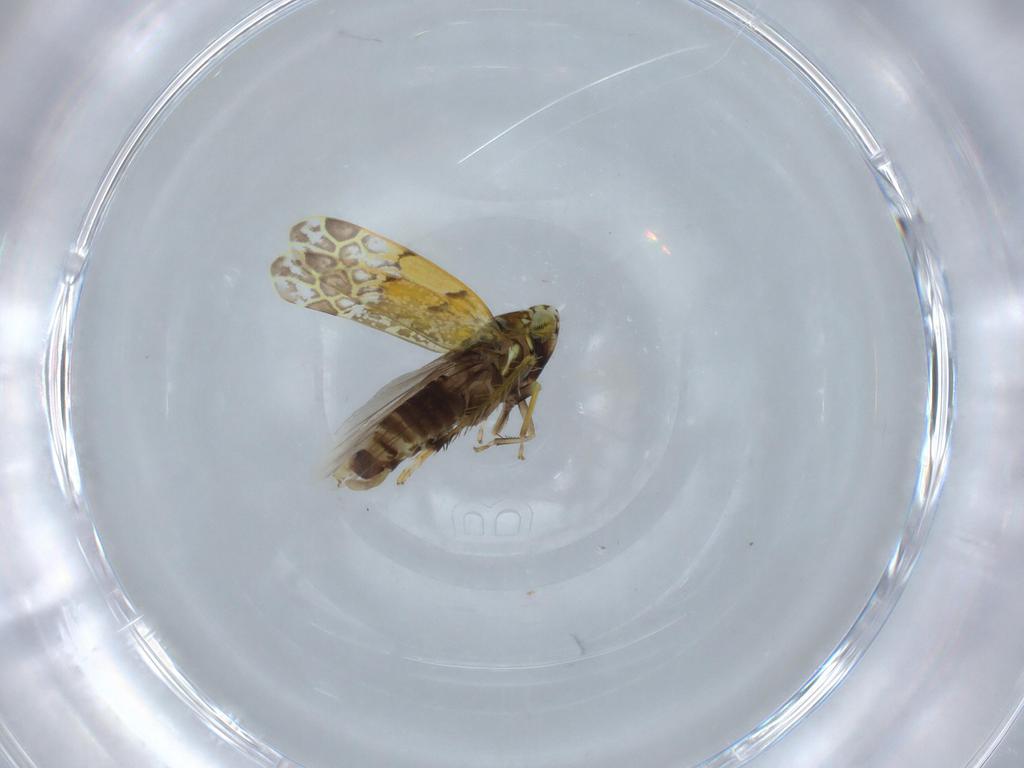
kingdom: Animalia
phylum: Arthropoda
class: Insecta
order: Hemiptera
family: Cicadellidae
